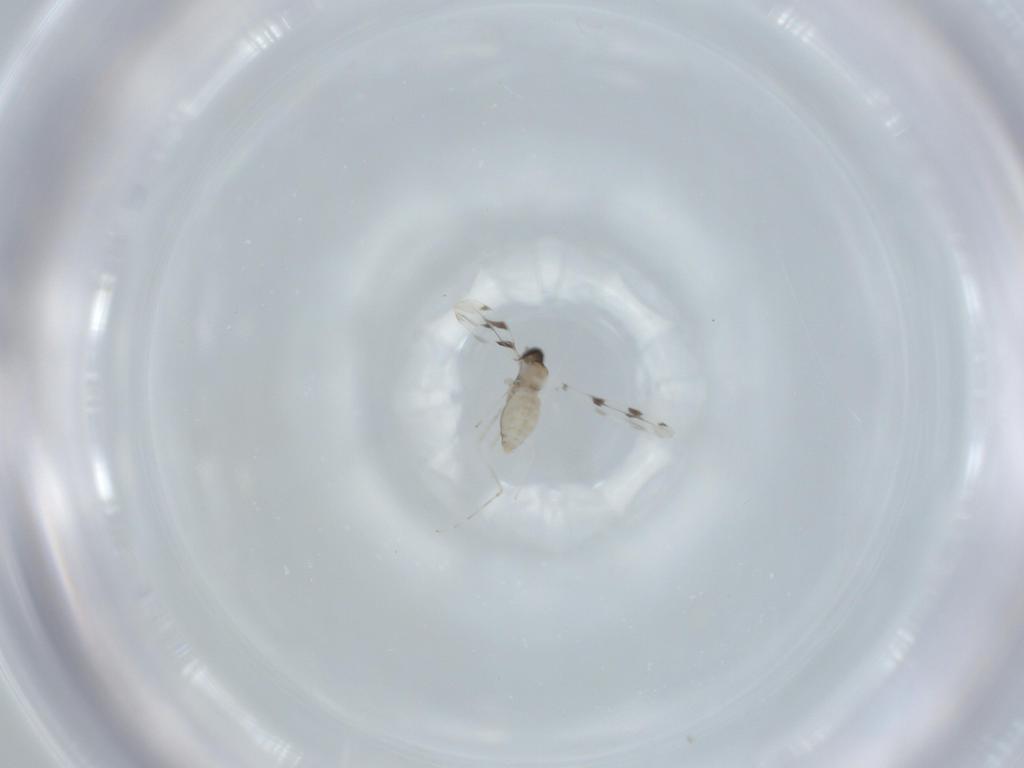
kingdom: Animalia
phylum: Arthropoda
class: Insecta
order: Diptera
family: Cecidomyiidae
